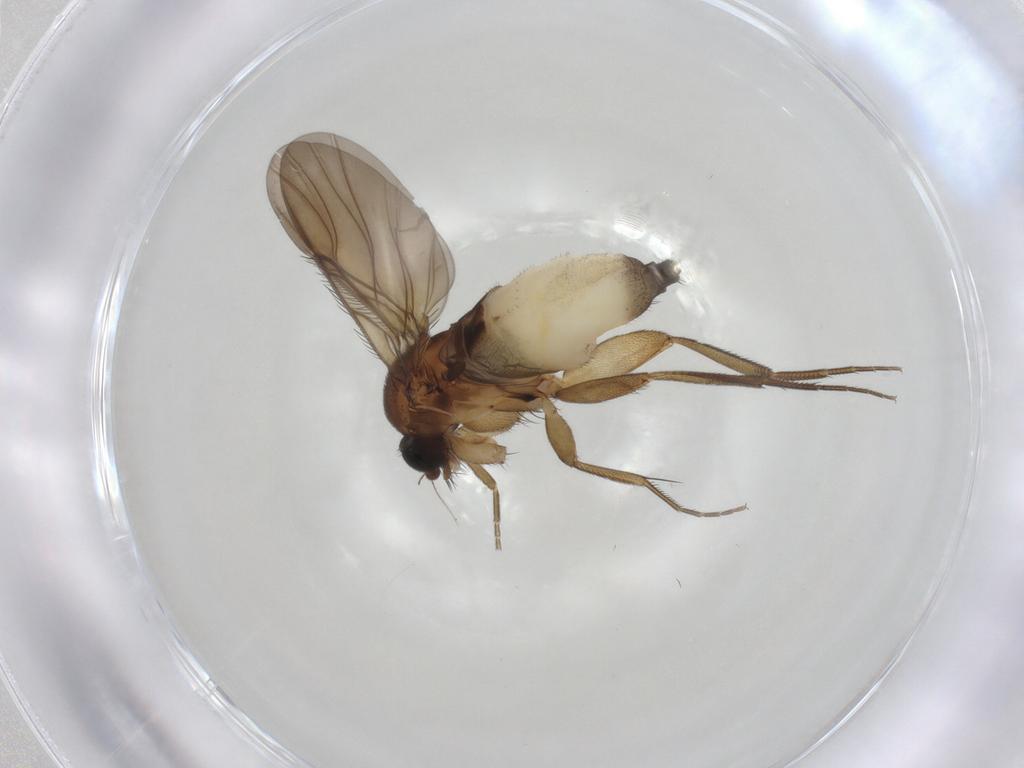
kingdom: Animalia
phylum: Arthropoda
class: Insecta
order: Diptera
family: Phoridae
